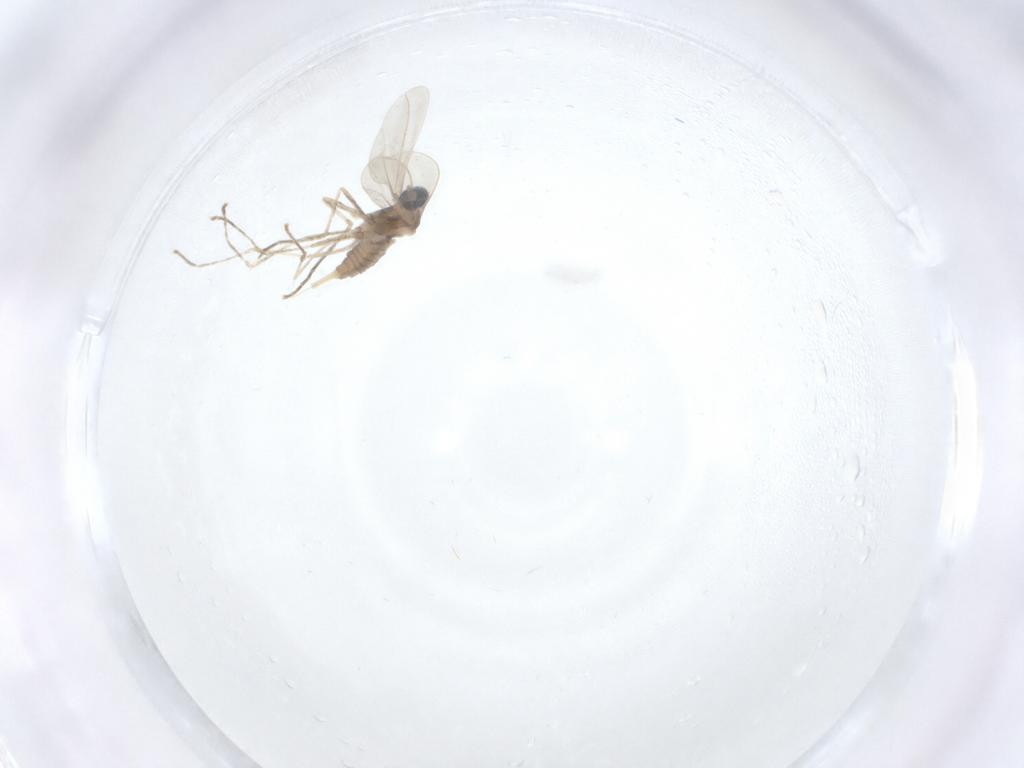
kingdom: Animalia
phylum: Arthropoda
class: Insecta
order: Diptera
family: Cecidomyiidae
